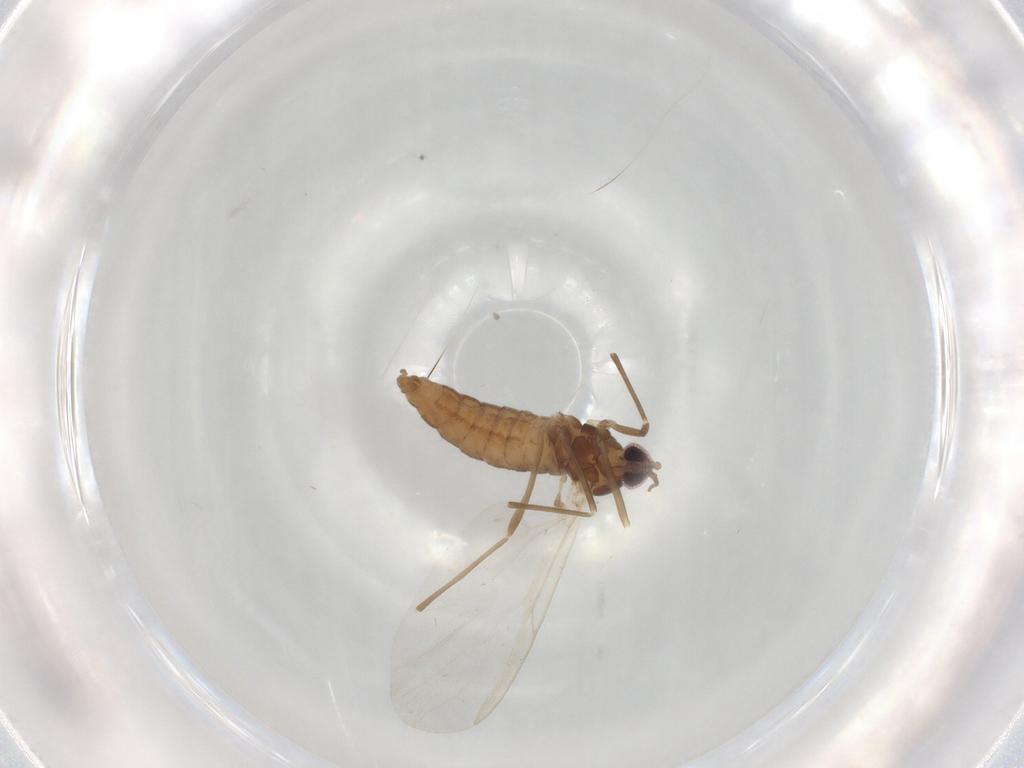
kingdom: Animalia
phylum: Arthropoda
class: Insecta
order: Diptera
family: Cecidomyiidae
